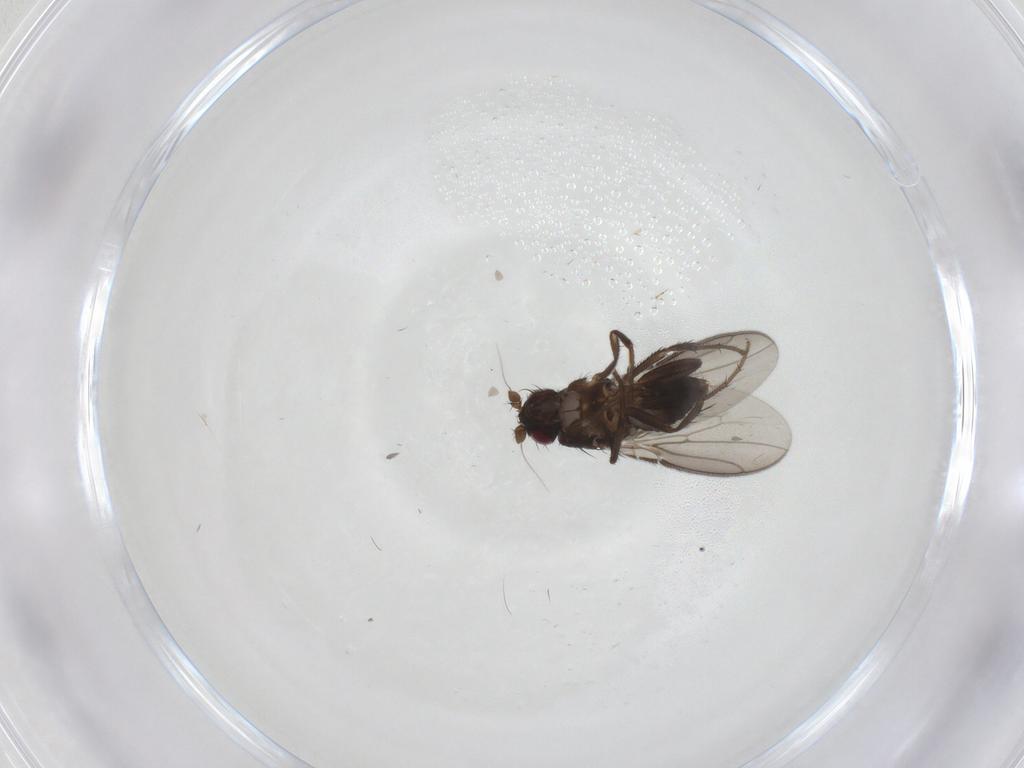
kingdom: Animalia
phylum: Arthropoda
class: Insecta
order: Diptera
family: Sphaeroceridae
